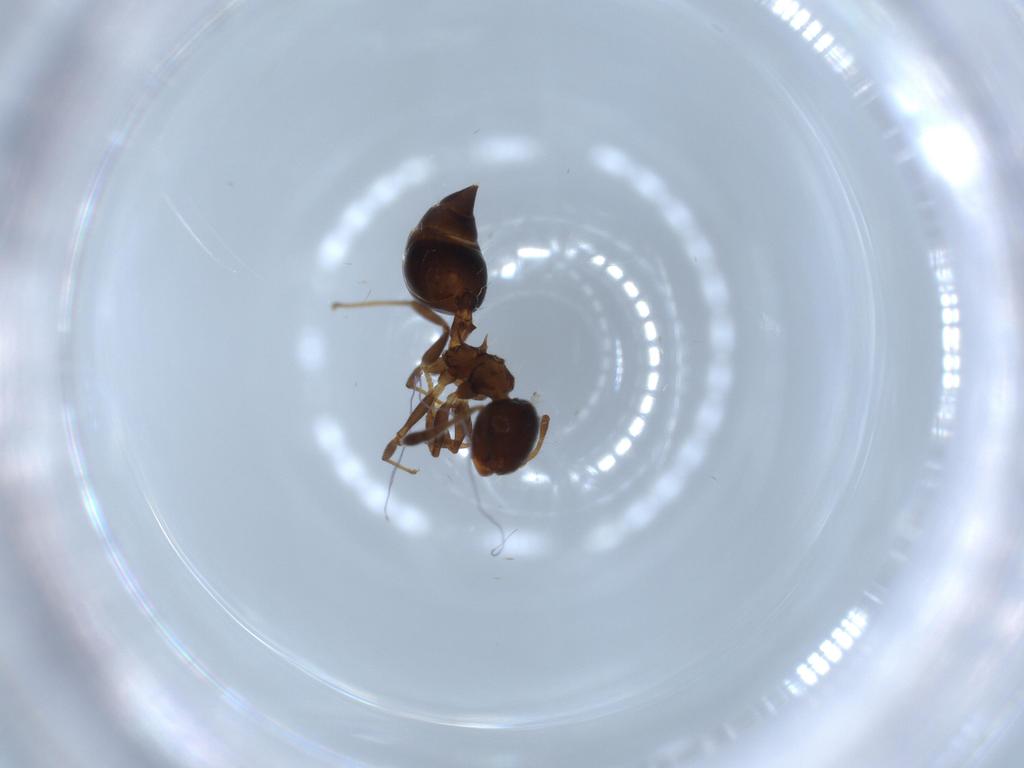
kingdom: Animalia
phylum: Arthropoda
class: Insecta
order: Hymenoptera
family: Formicidae
